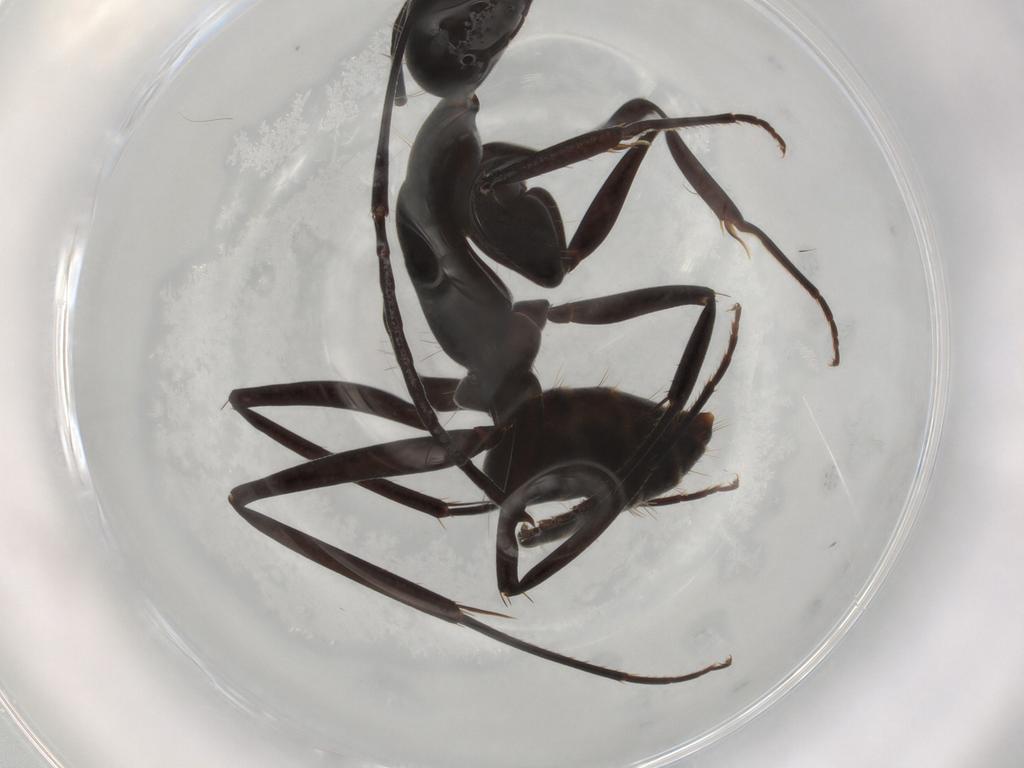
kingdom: Animalia
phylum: Arthropoda
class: Insecta
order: Hymenoptera
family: Formicidae
